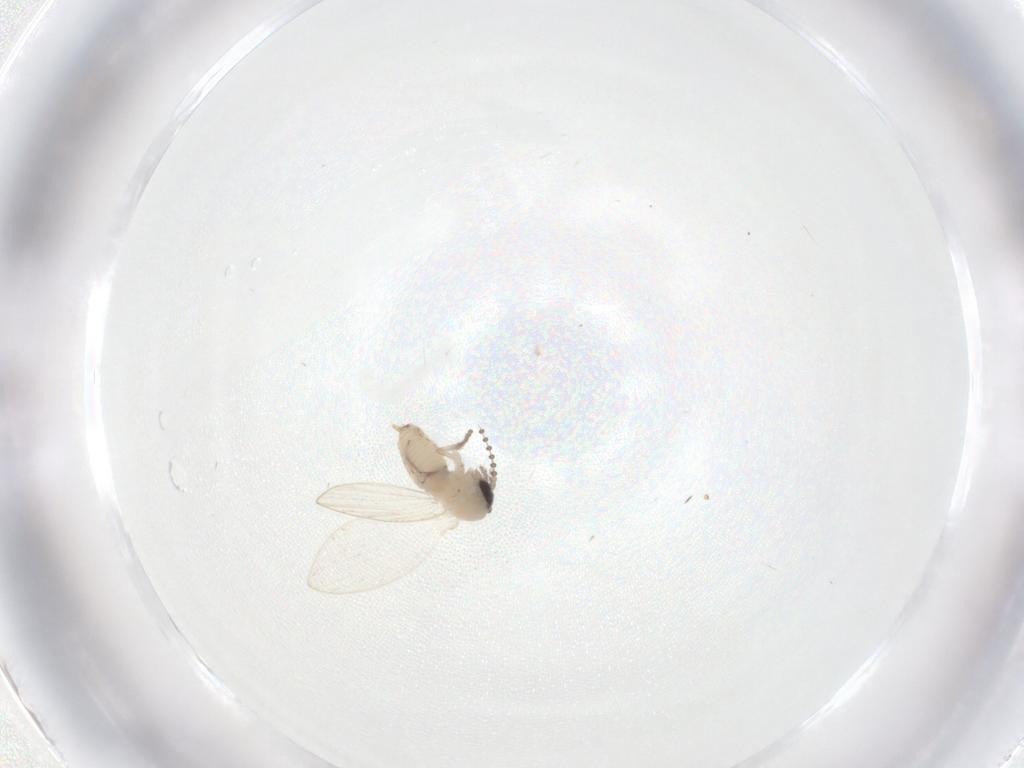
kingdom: Animalia
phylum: Arthropoda
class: Insecta
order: Diptera
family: Psychodidae
